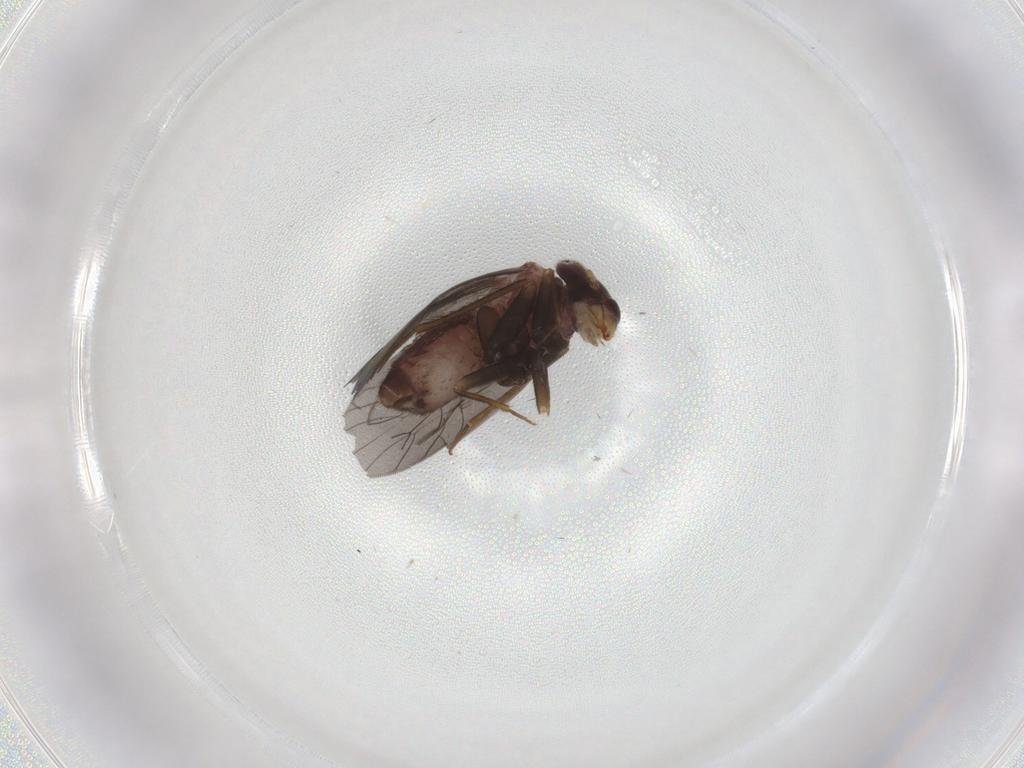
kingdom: Animalia
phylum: Arthropoda
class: Insecta
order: Psocodea
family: Lepidopsocidae
